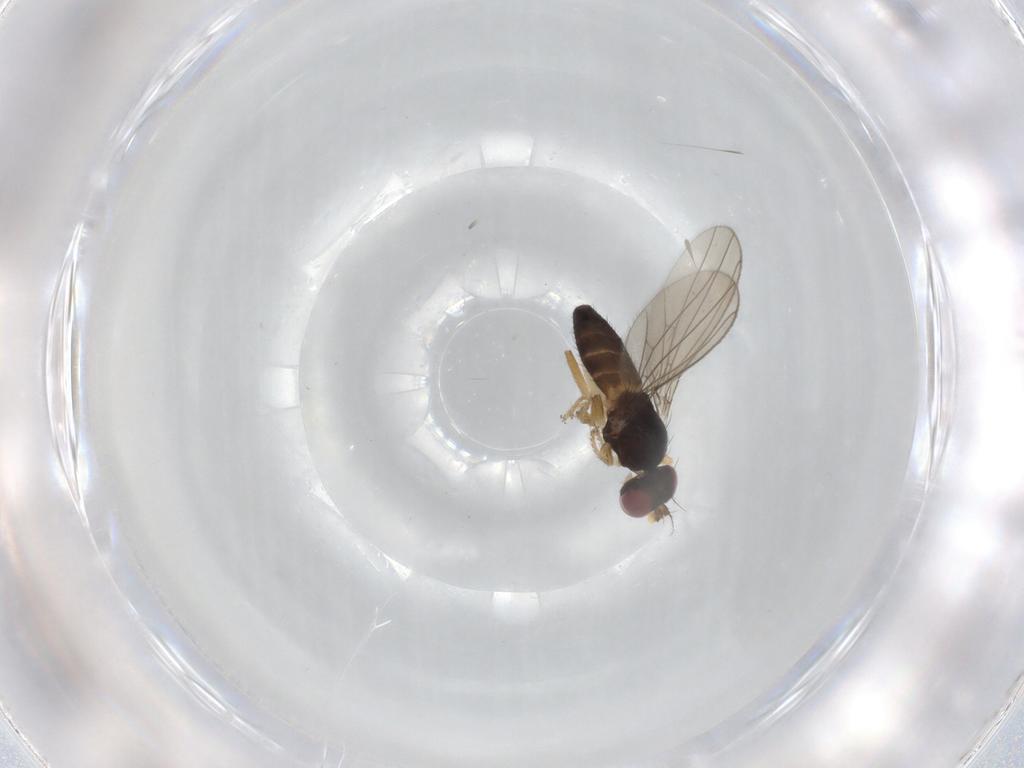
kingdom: Animalia
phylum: Arthropoda
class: Insecta
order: Diptera
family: Anthomyzidae
